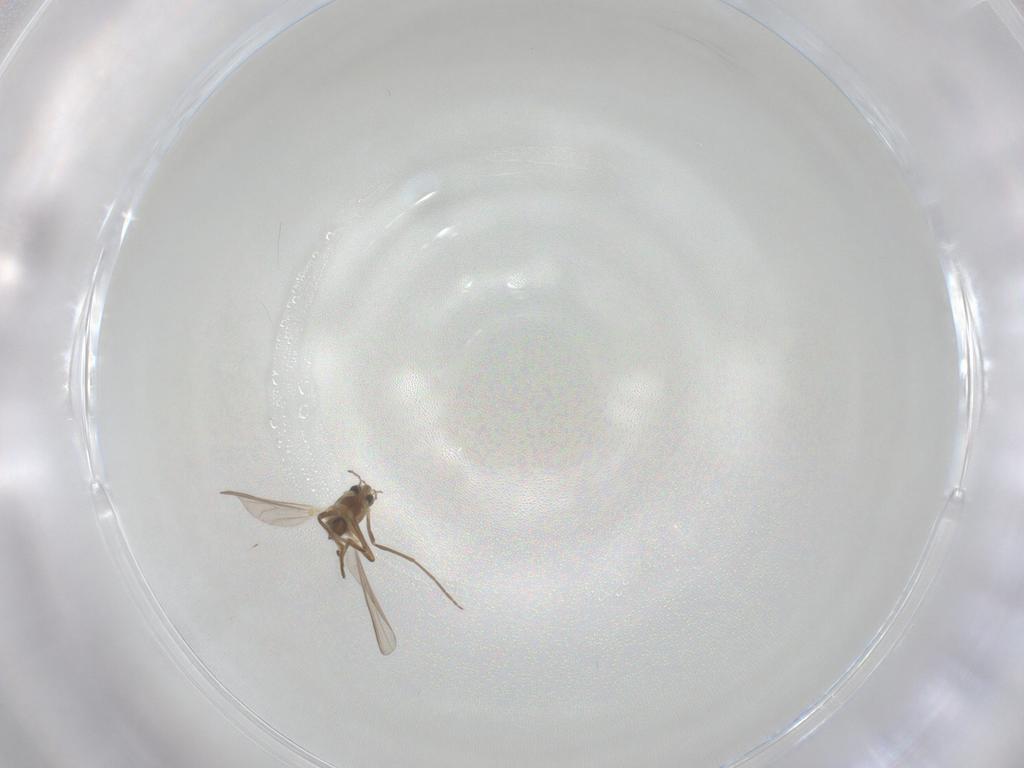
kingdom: Animalia
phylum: Arthropoda
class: Insecta
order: Diptera
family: Chironomidae
